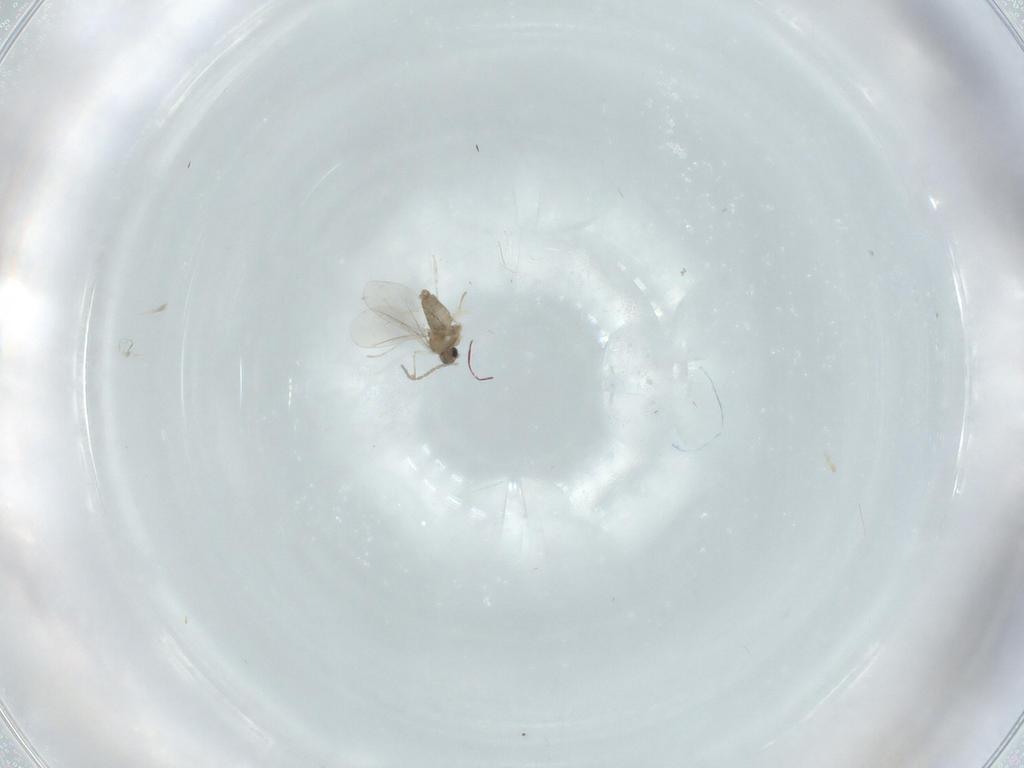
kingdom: Animalia
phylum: Arthropoda
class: Insecta
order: Diptera
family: Cecidomyiidae
